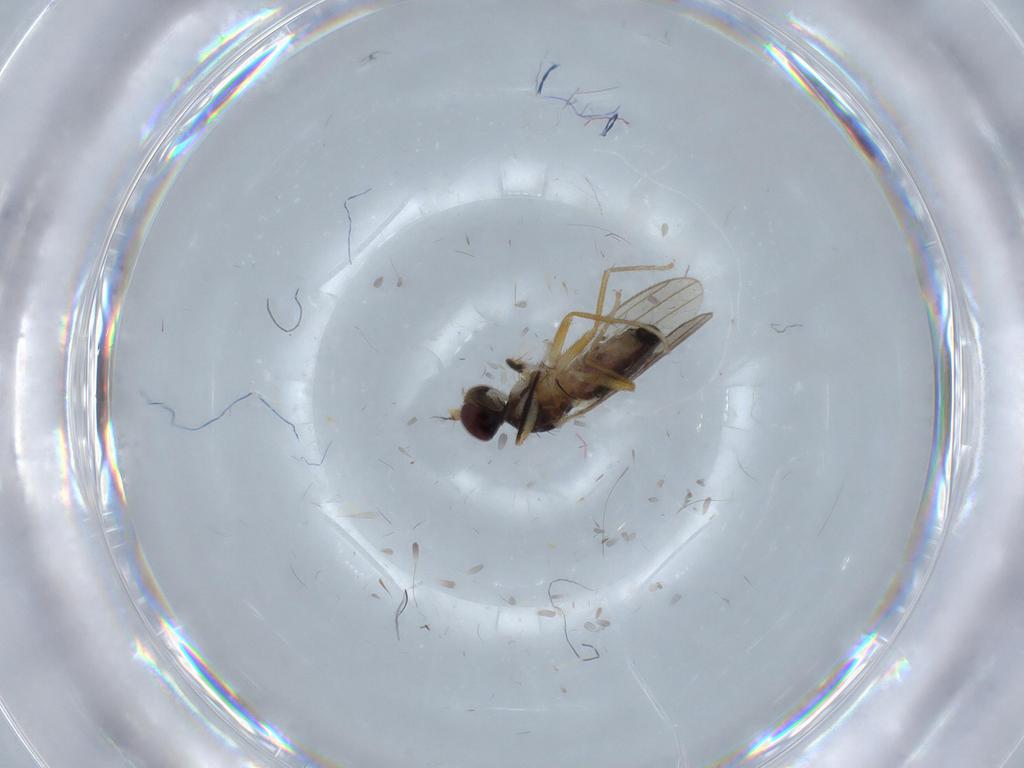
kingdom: Animalia
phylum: Arthropoda
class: Insecta
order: Diptera
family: Anthomyzidae
